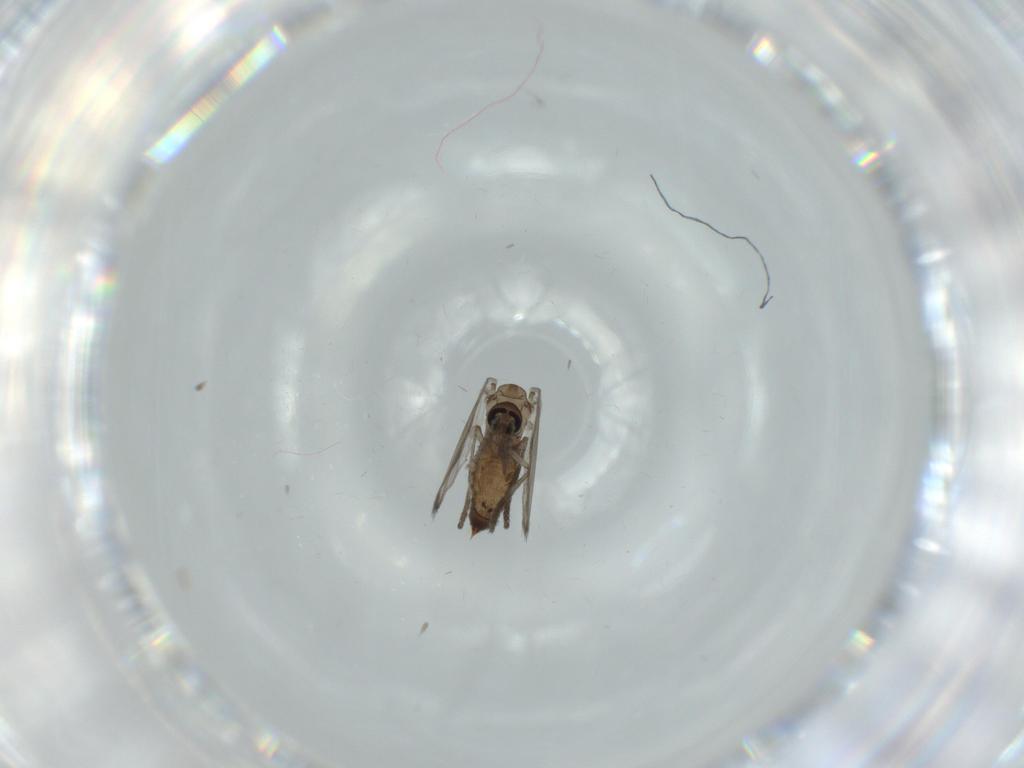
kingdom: Animalia
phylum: Arthropoda
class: Insecta
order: Diptera
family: Psychodidae
